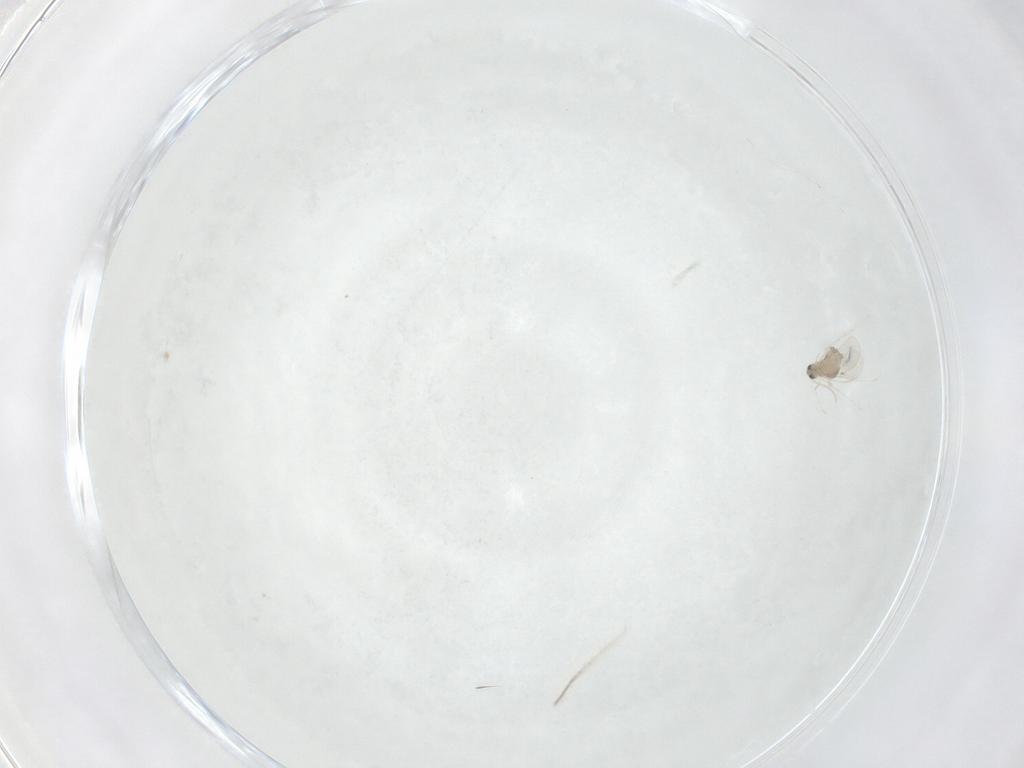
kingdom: Animalia
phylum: Arthropoda
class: Insecta
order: Diptera
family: Cecidomyiidae
